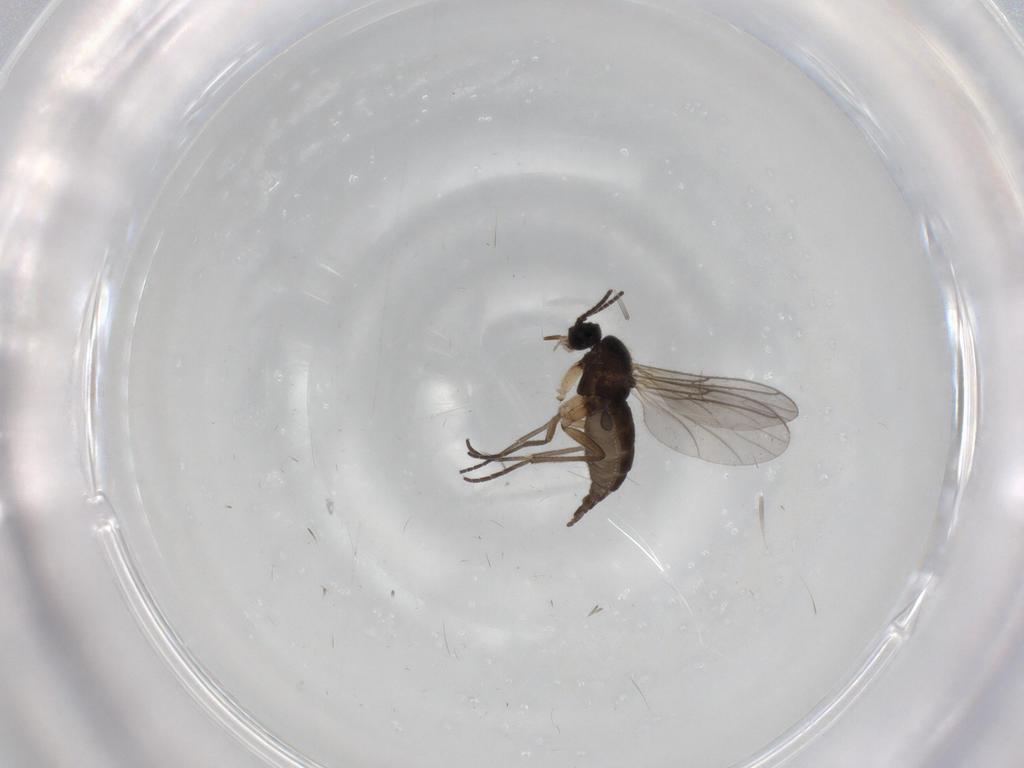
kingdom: Animalia
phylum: Arthropoda
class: Insecta
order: Diptera
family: Sciaridae
